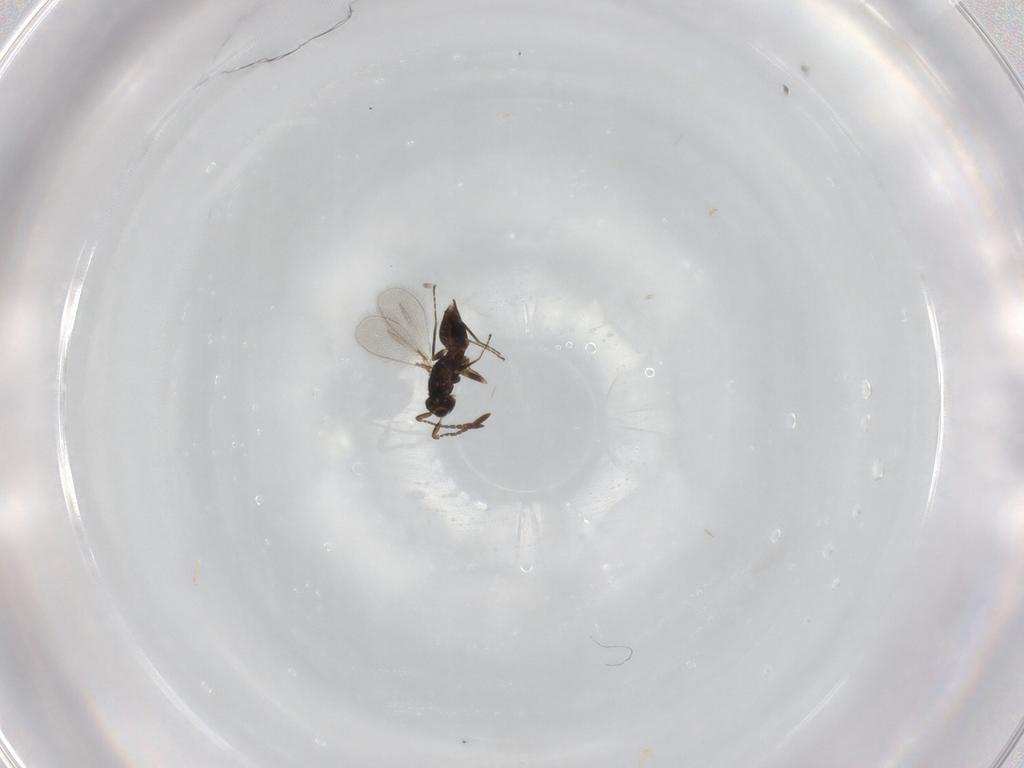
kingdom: Animalia
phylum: Arthropoda
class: Insecta
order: Hymenoptera
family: Mymaridae
